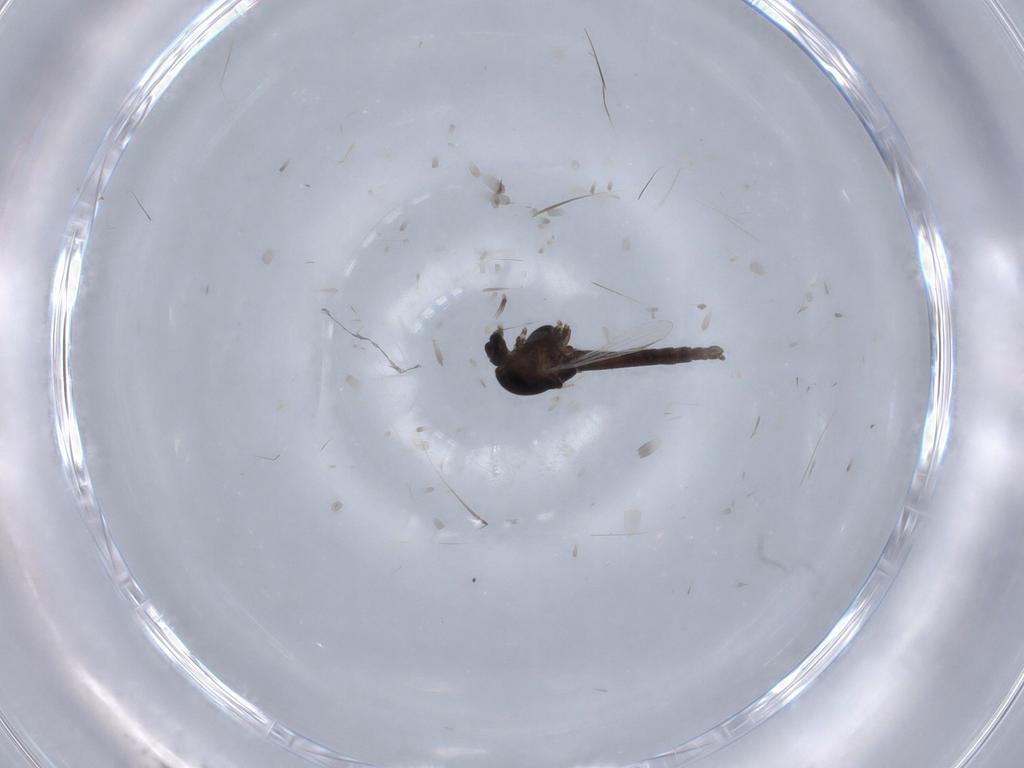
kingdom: Animalia
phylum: Arthropoda
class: Insecta
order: Diptera
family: Chironomidae
